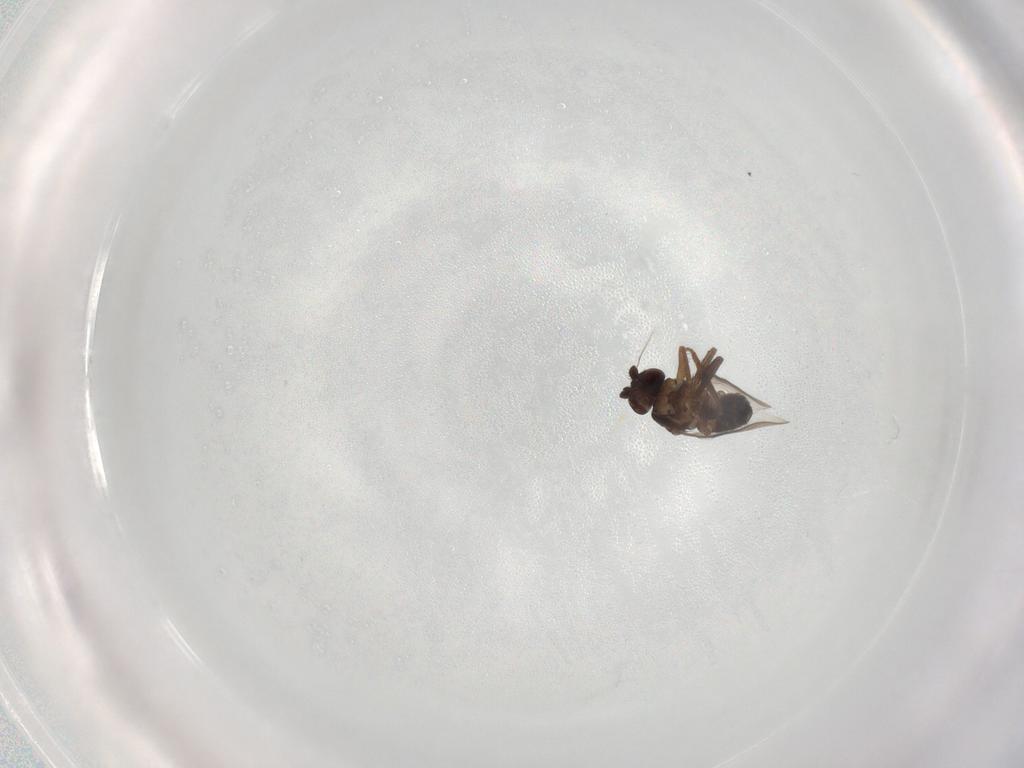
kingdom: Animalia
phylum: Arthropoda
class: Insecta
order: Diptera
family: Sphaeroceridae
